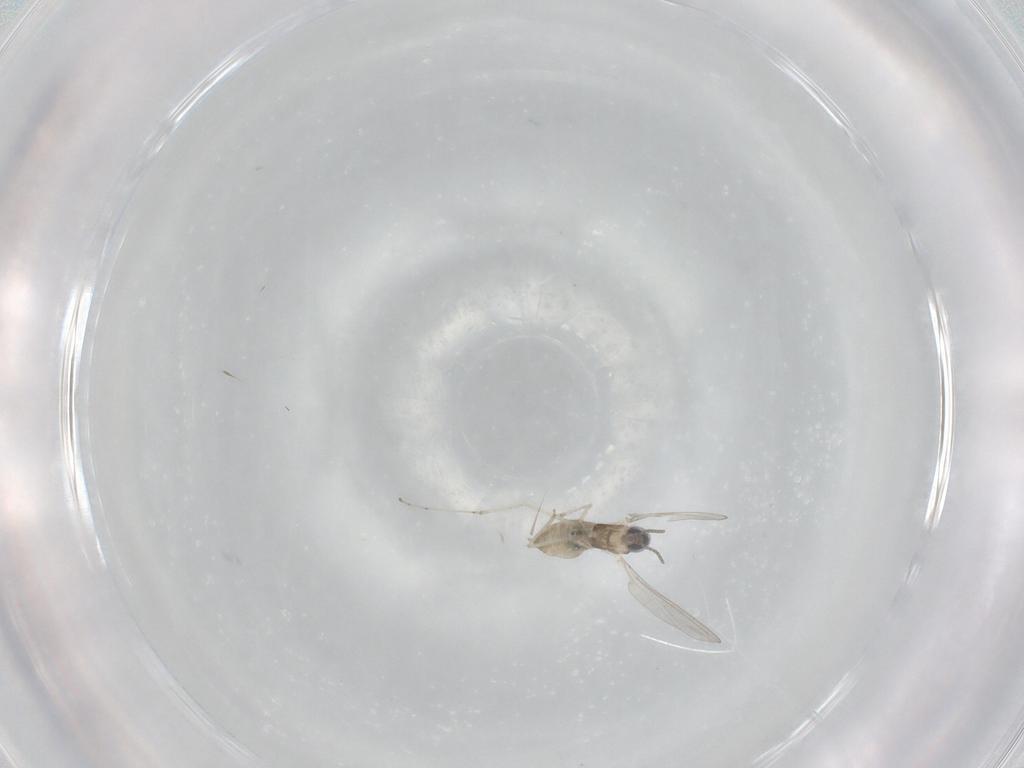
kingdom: Animalia
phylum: Arthropoda
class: Insecta
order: Diptera
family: Cecidomyiidae
